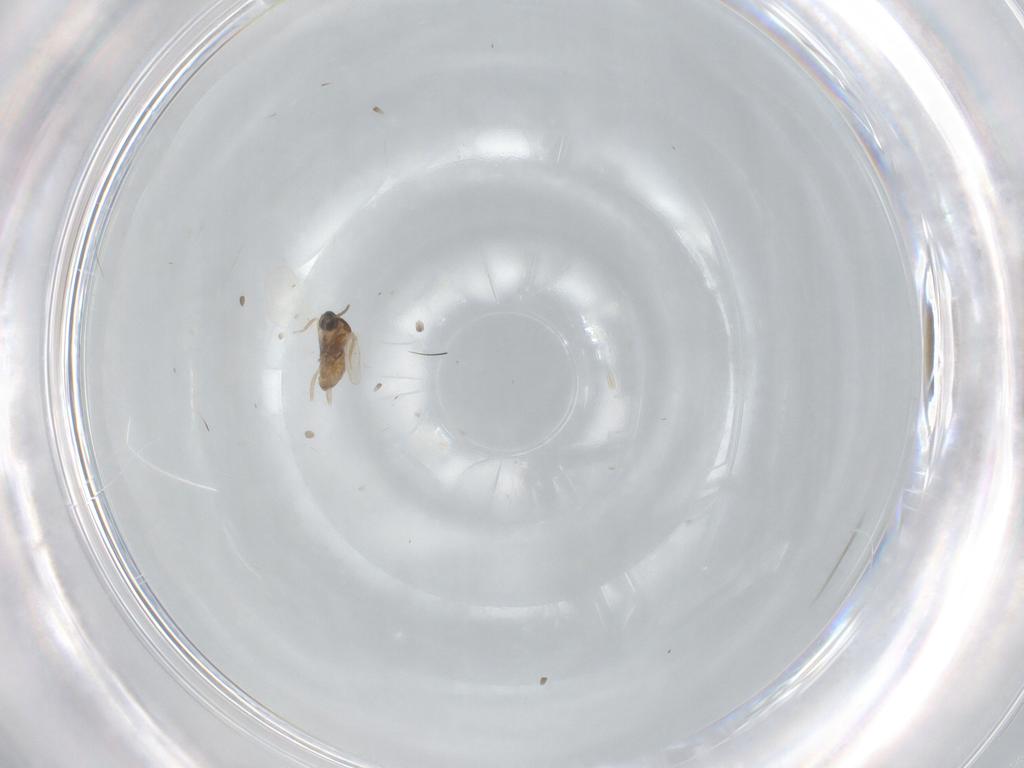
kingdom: Animalia
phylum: Arthropoda
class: Insecta
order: Diptera
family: Cecidomyiidae
